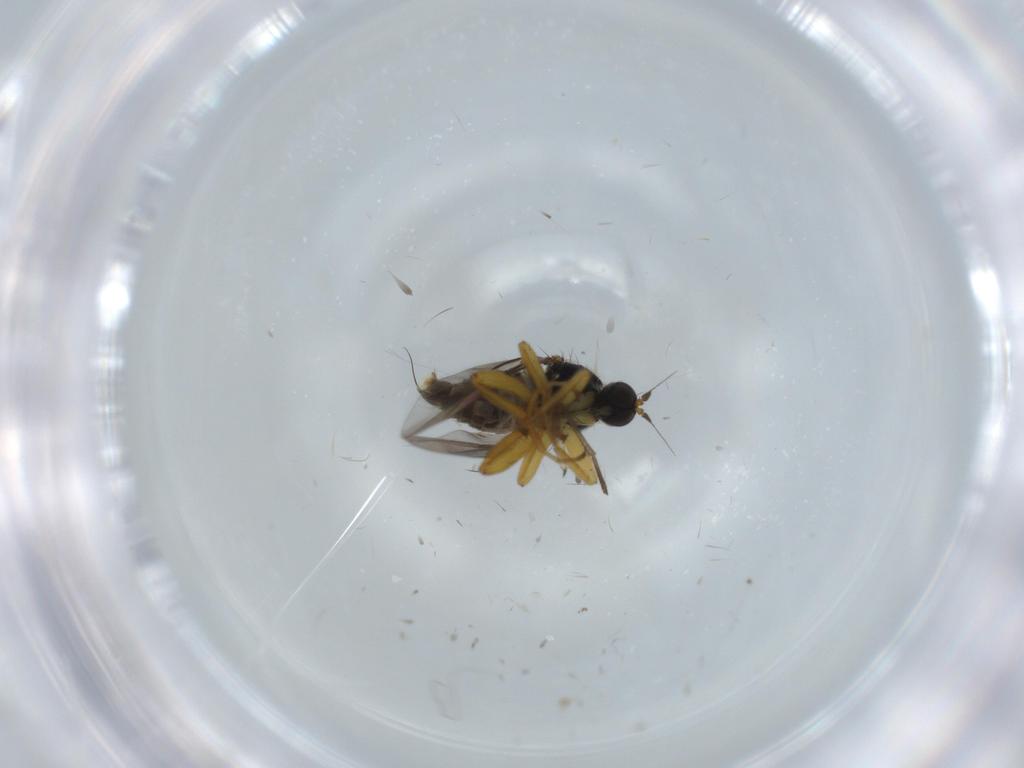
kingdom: Animalia
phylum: Arthropoda
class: Insecta
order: Diptera
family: Hybotidae
